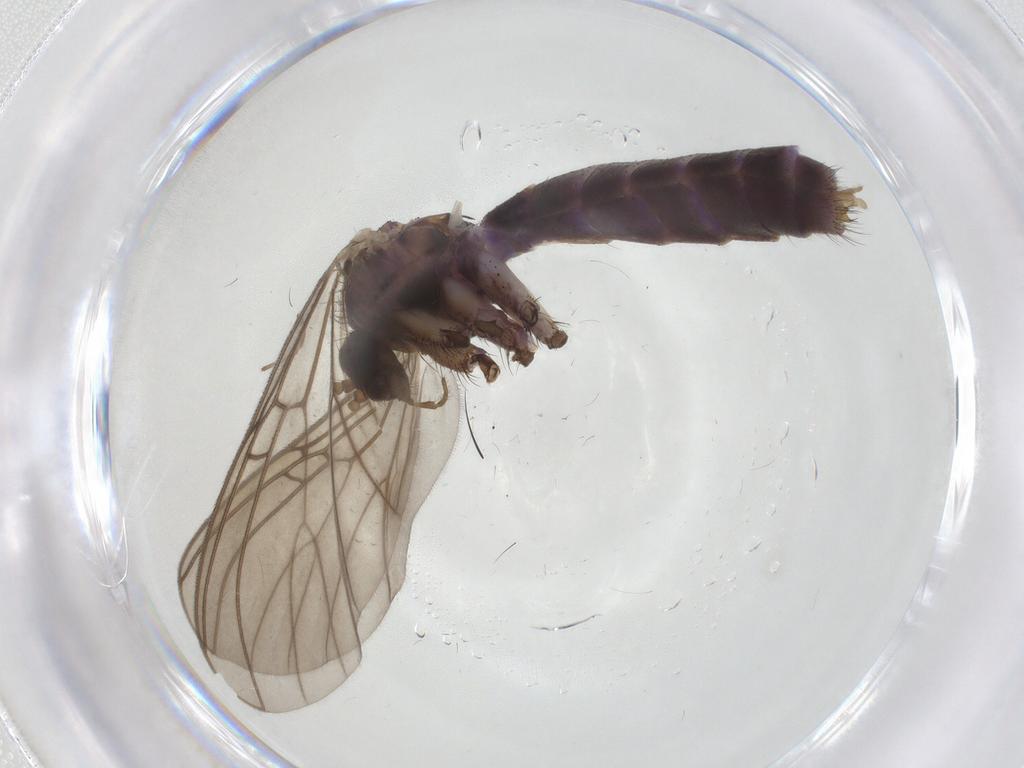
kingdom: Animalia
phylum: Arthropoda
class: Insecta
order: Diptera
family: Mycetophilidae
